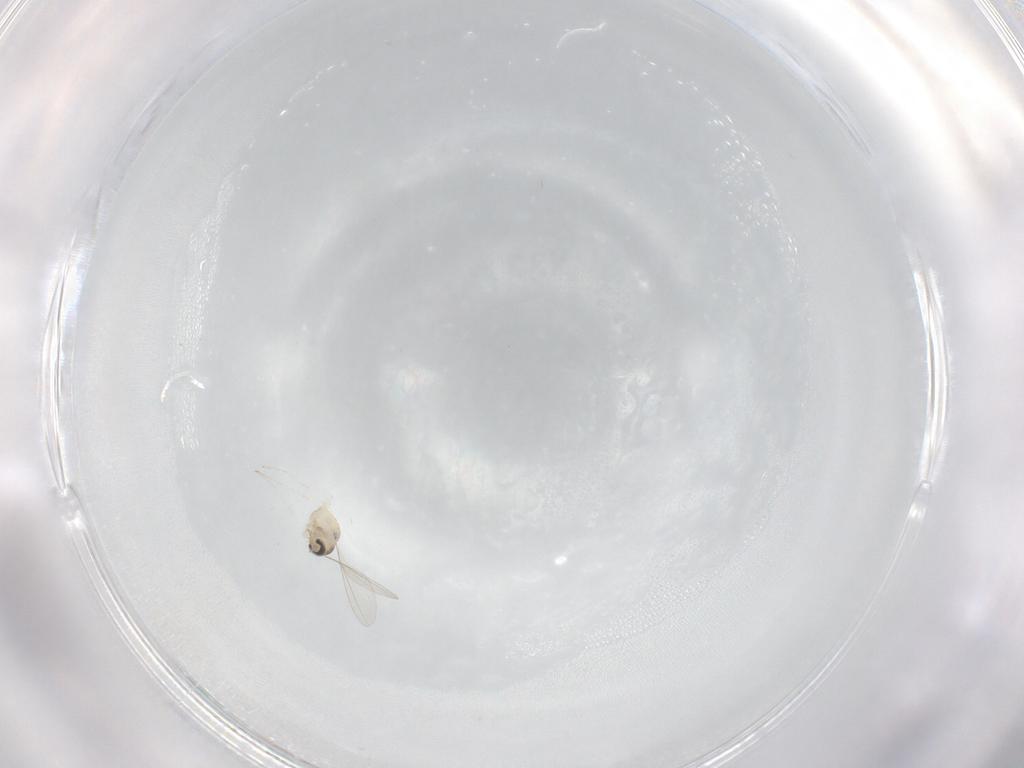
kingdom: Animalia
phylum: Arthropoda
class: Insecta
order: Diptera
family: Cecidomyiidae
